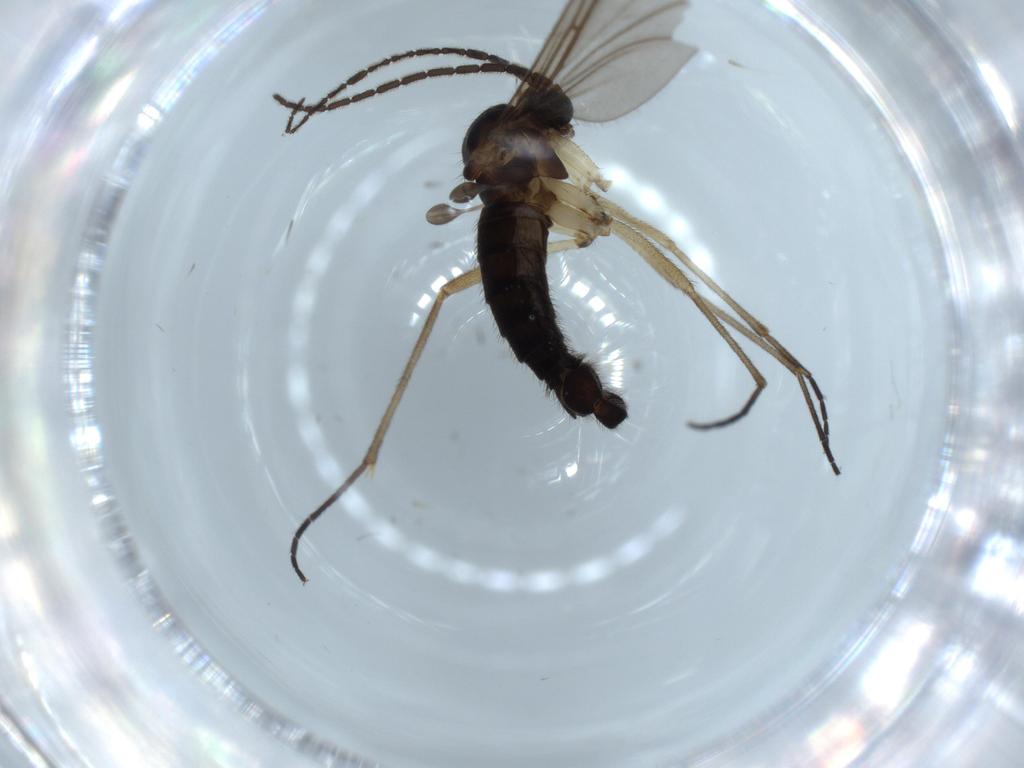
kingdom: Animalia
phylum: Arthropoda
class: Insecta
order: Diptera
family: Sciaridae
